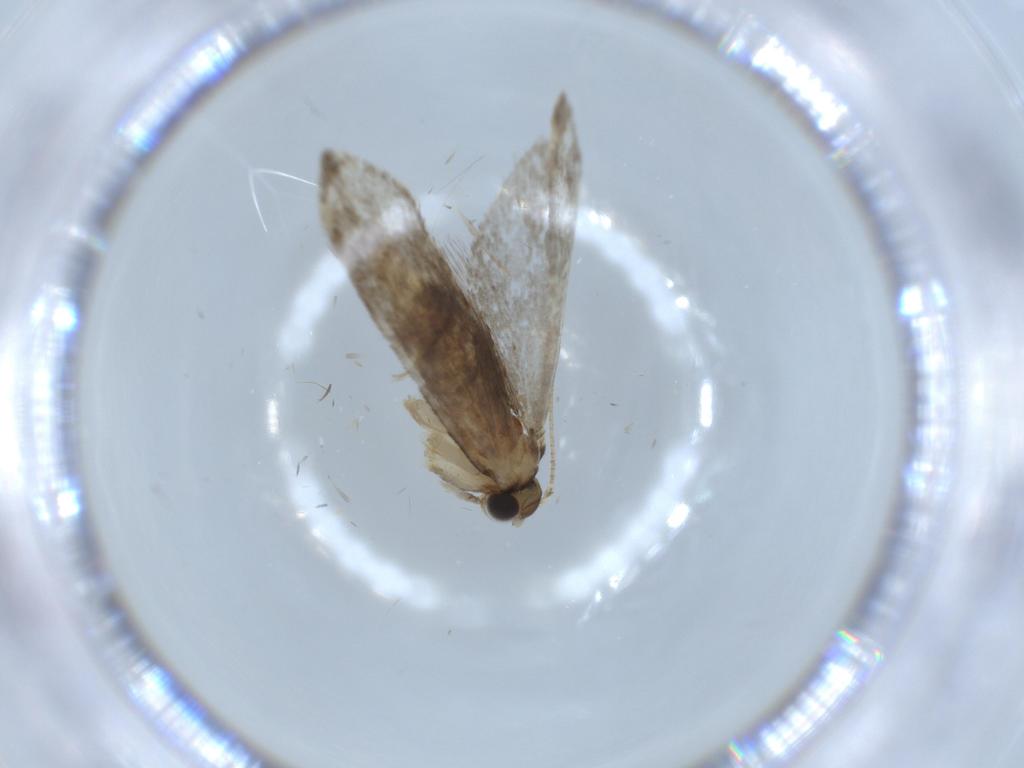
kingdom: Animalia
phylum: Arthropoda
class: Insecta
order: Lepidoptera
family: Tineidae
